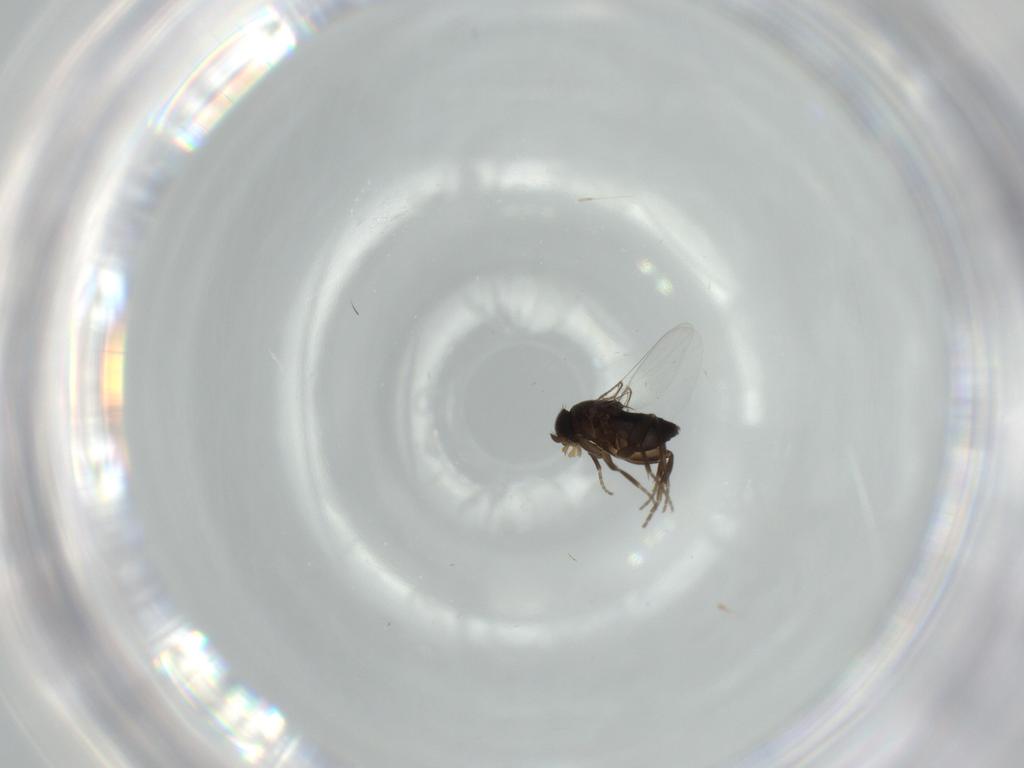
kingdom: Animalia
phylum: Arthropoda
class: Insecta
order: Diptera
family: Phoridae
